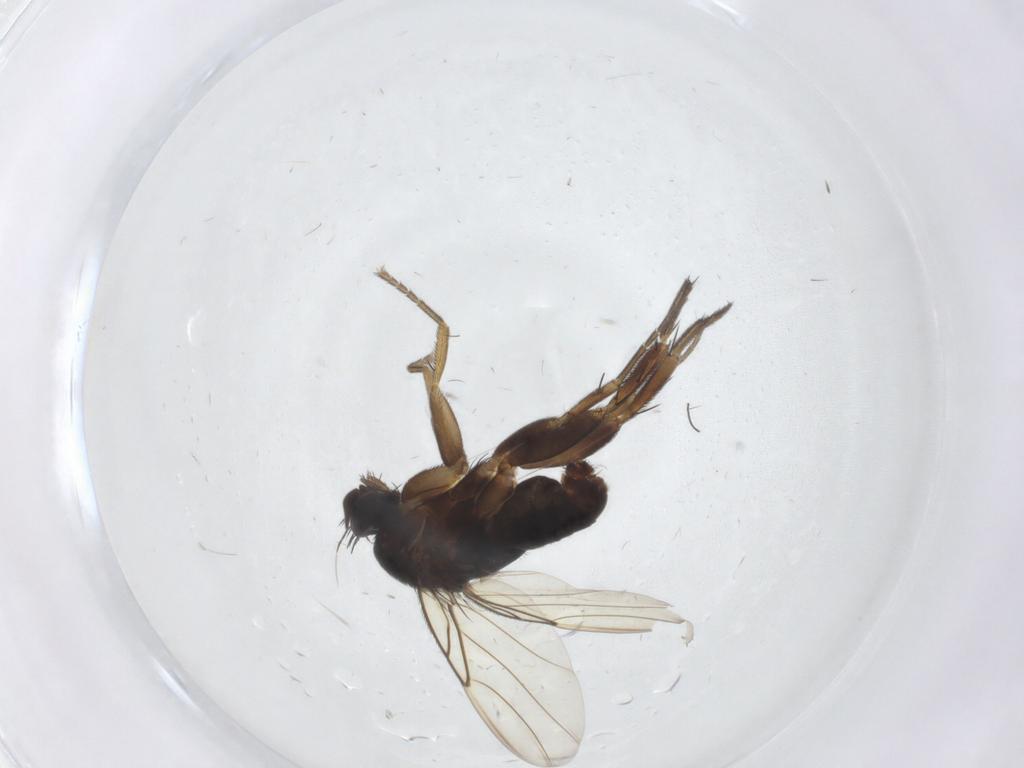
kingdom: Animalia
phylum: Arthropoda
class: Insecta
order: Diptera
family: Phoridae
